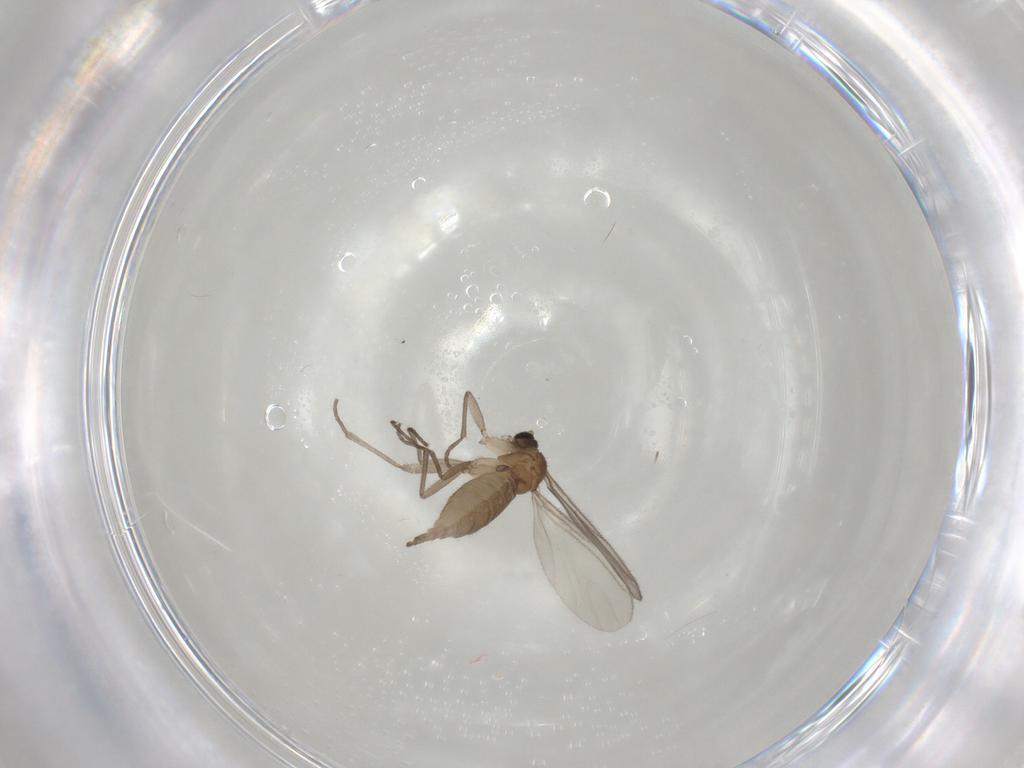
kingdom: Animalia
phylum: Arthropoda
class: Insecta
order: Diptera
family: Sciaridae
